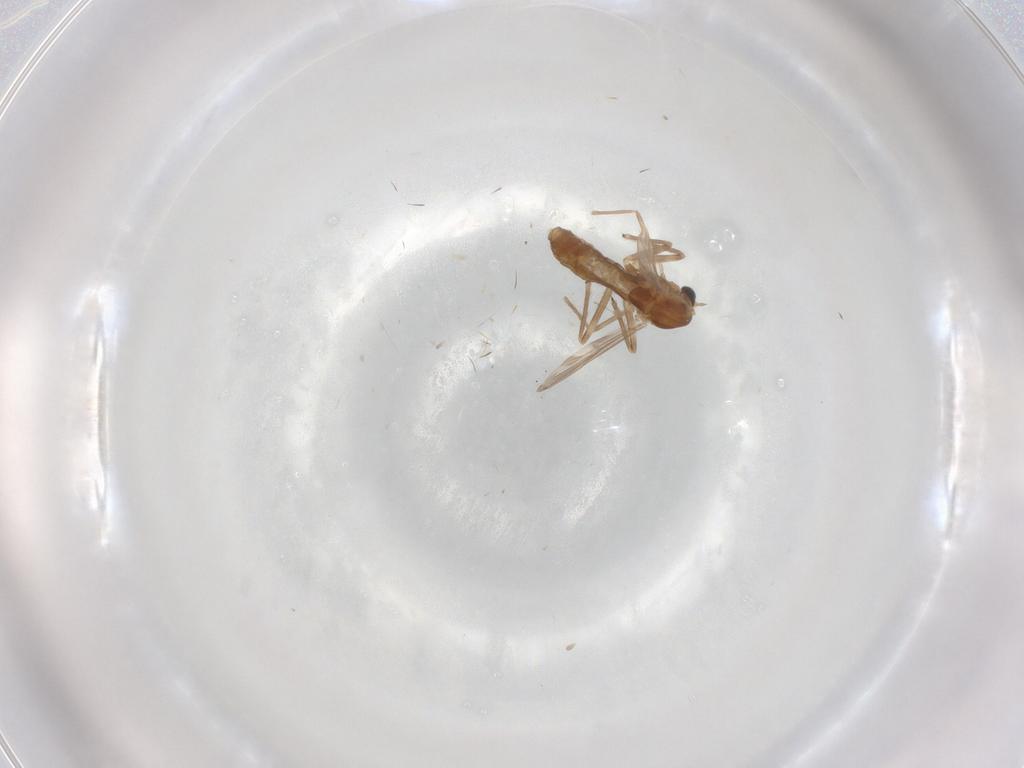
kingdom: Animalia
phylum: Arthropoda
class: Insecta
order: Diptera
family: Chironomidae
